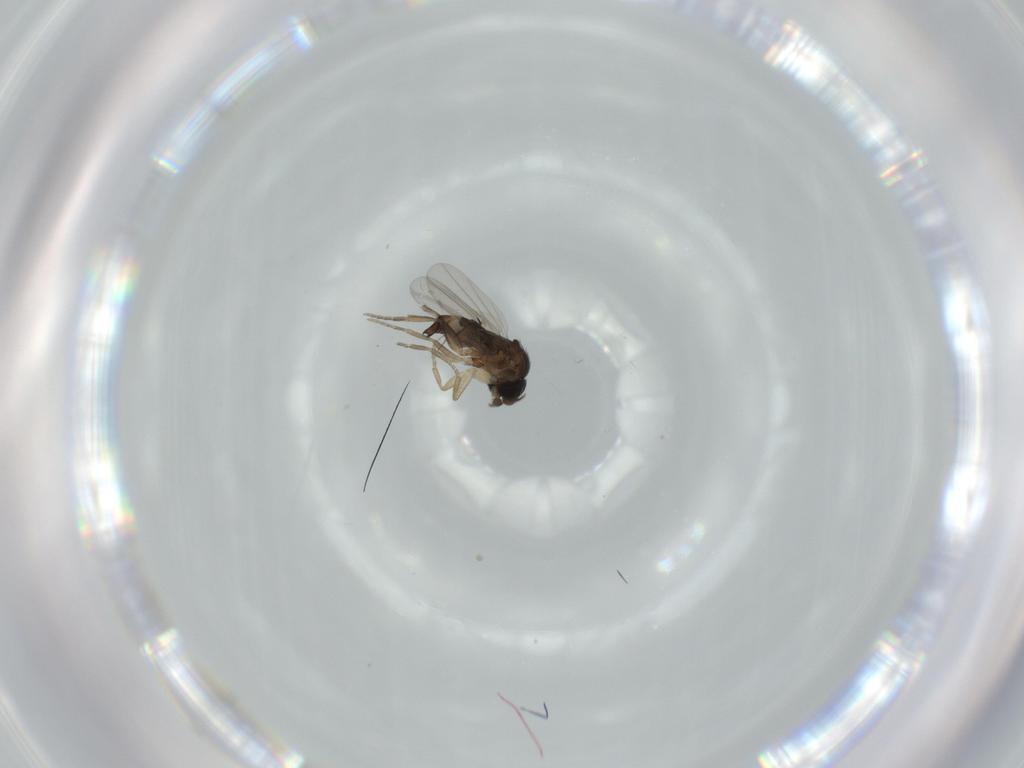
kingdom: Animalia
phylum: Arthropoda
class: Insecta
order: Diptera
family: Phoridae
